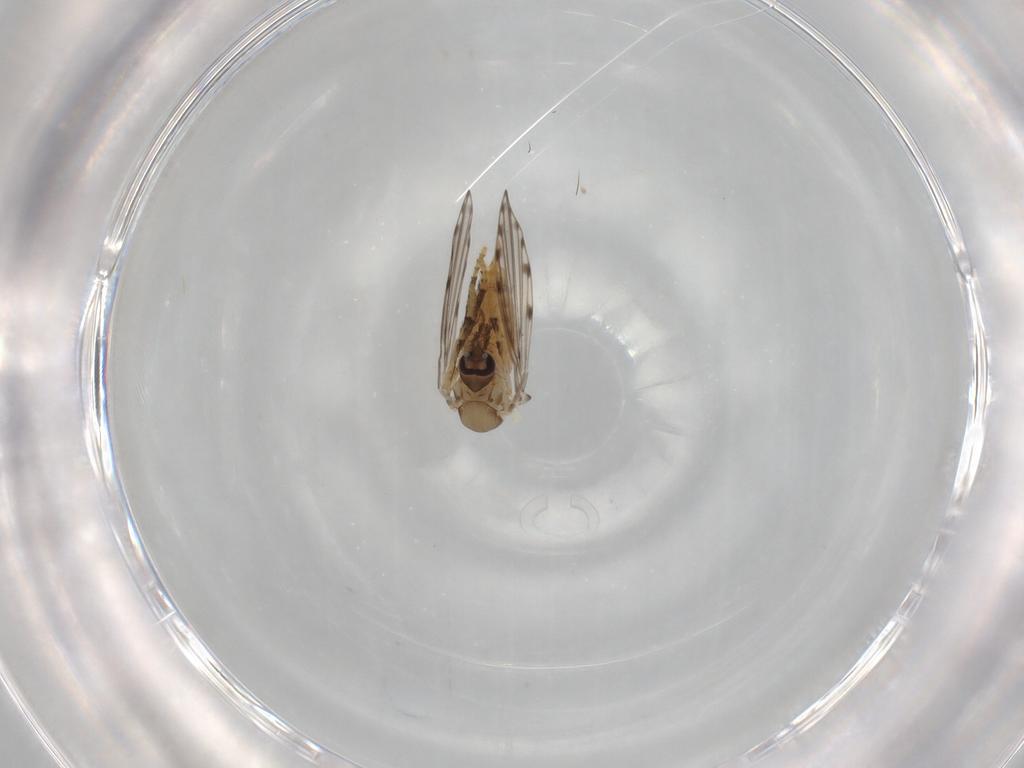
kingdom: Animalia
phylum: Arthropoda
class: Insecta
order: Diptera
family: Psychodidae
